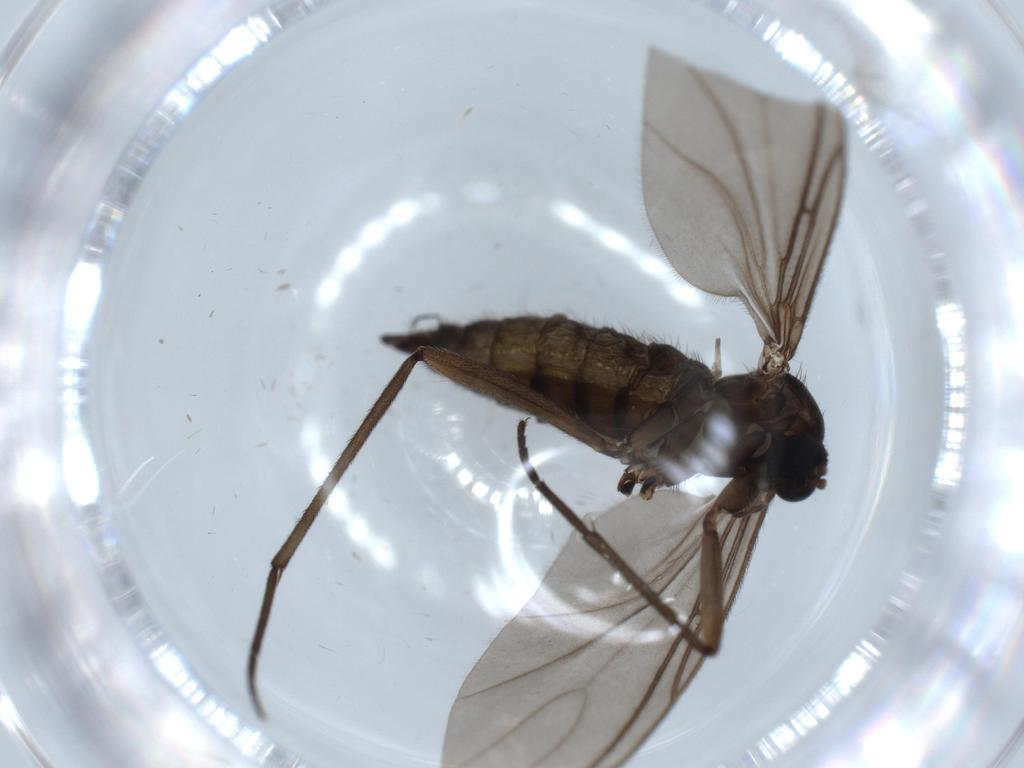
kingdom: Animalia
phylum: Arthropoda
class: Insecta
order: Diptera
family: Sciaridae
